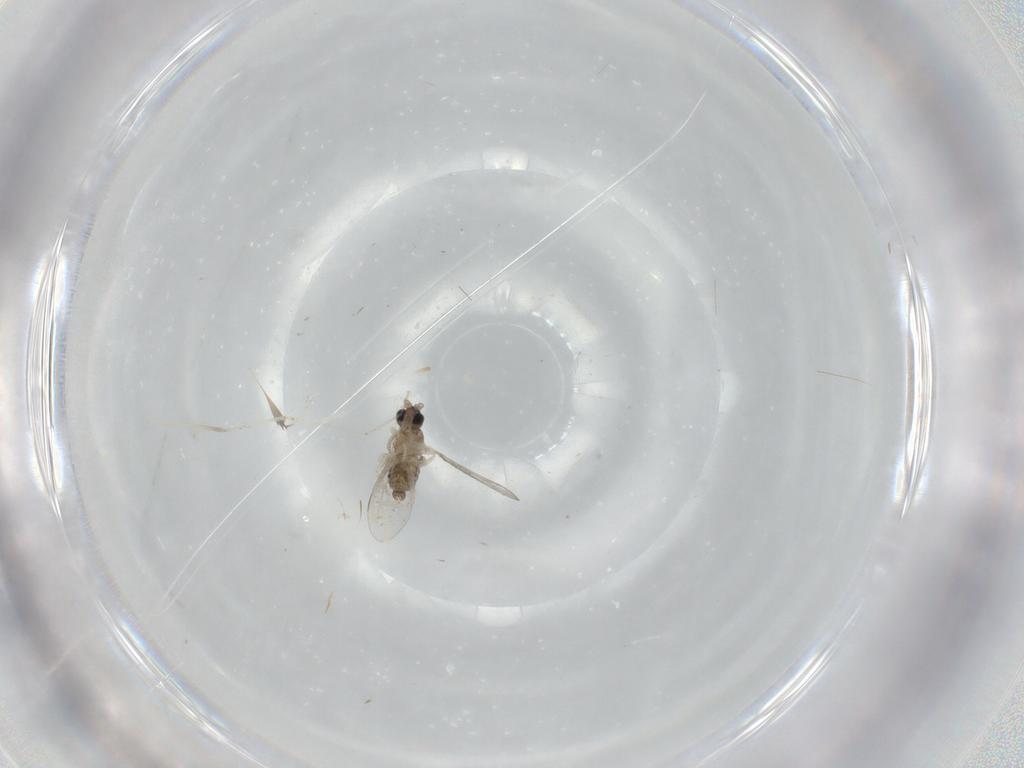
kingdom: Animalia
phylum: Arthropoda
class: Insecta
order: Diptera
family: Cecidomyiidae
